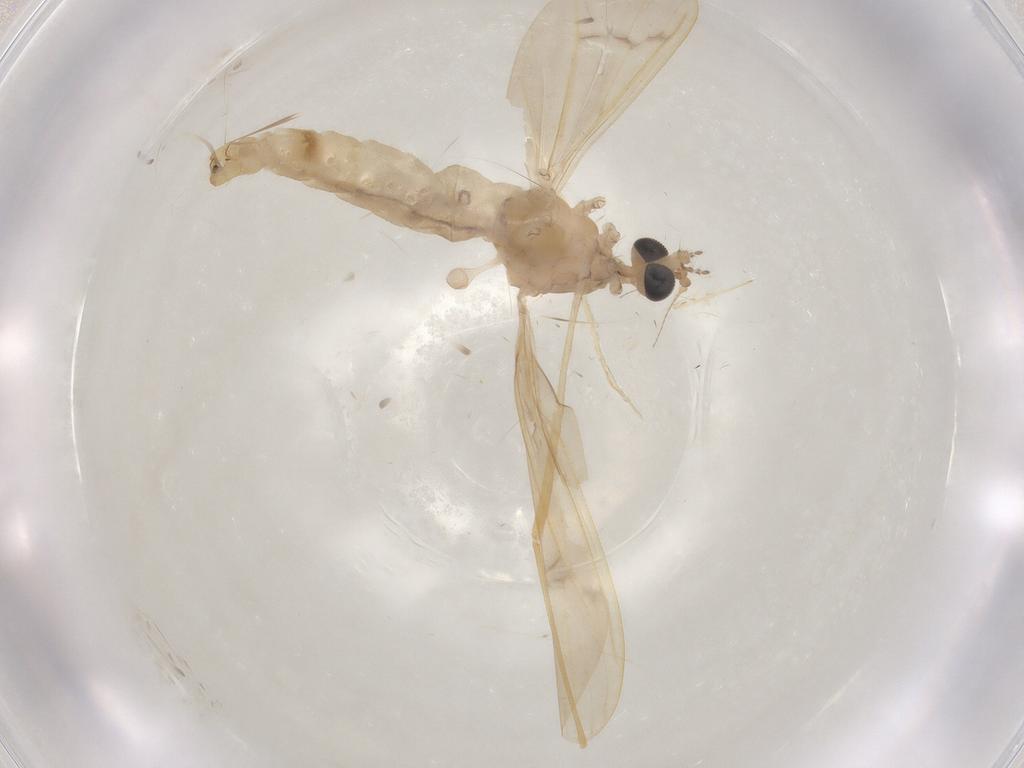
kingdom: Animalia
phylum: Arthropoda
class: Insecta
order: Diptera
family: Limoniidae
